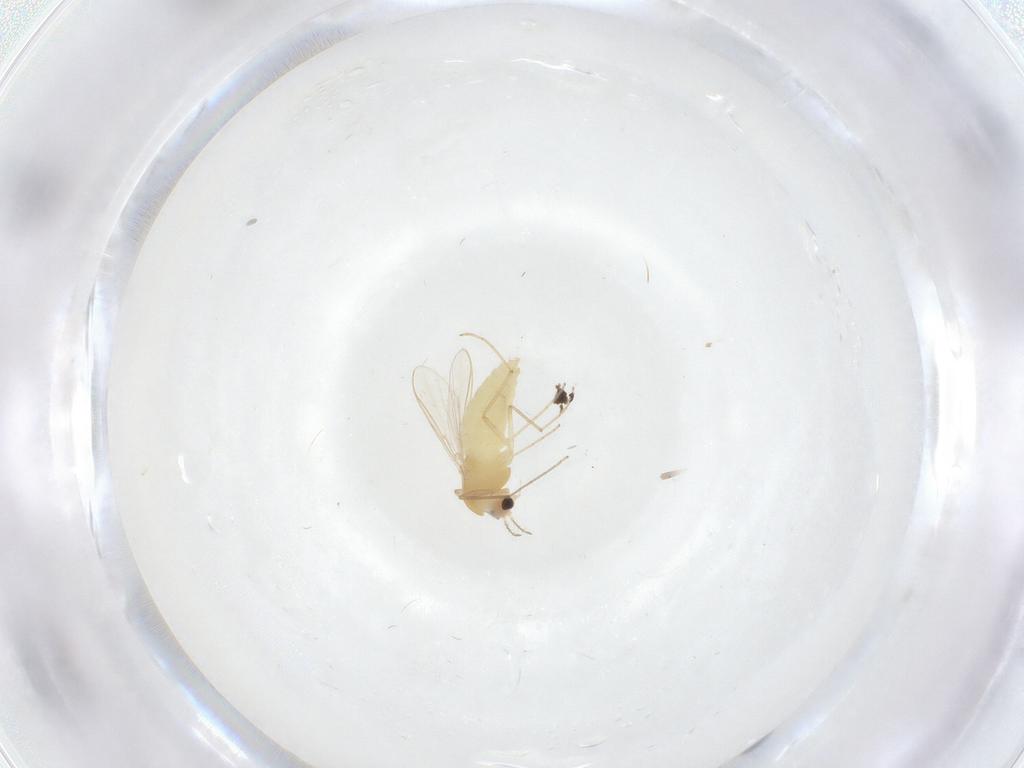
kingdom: Animalia
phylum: Arthropoda
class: Insecta
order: Diptera
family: Chironomidae
